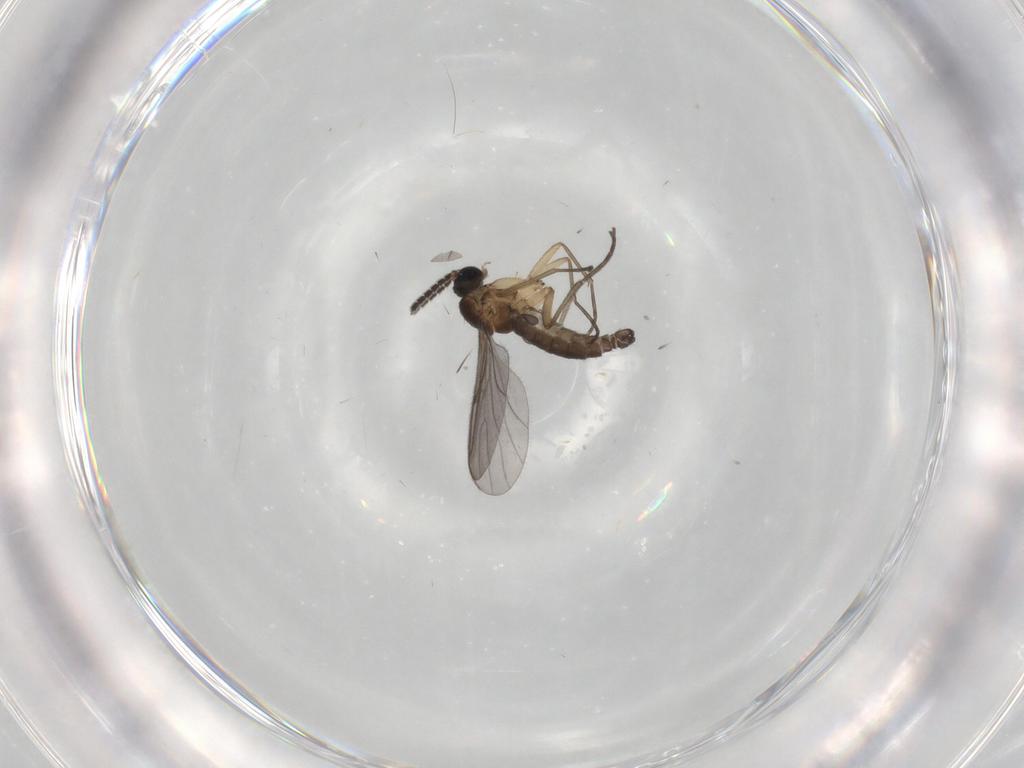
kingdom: Animalia
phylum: Arthropoda
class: Insecta
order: Diptera
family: Sciaridae
